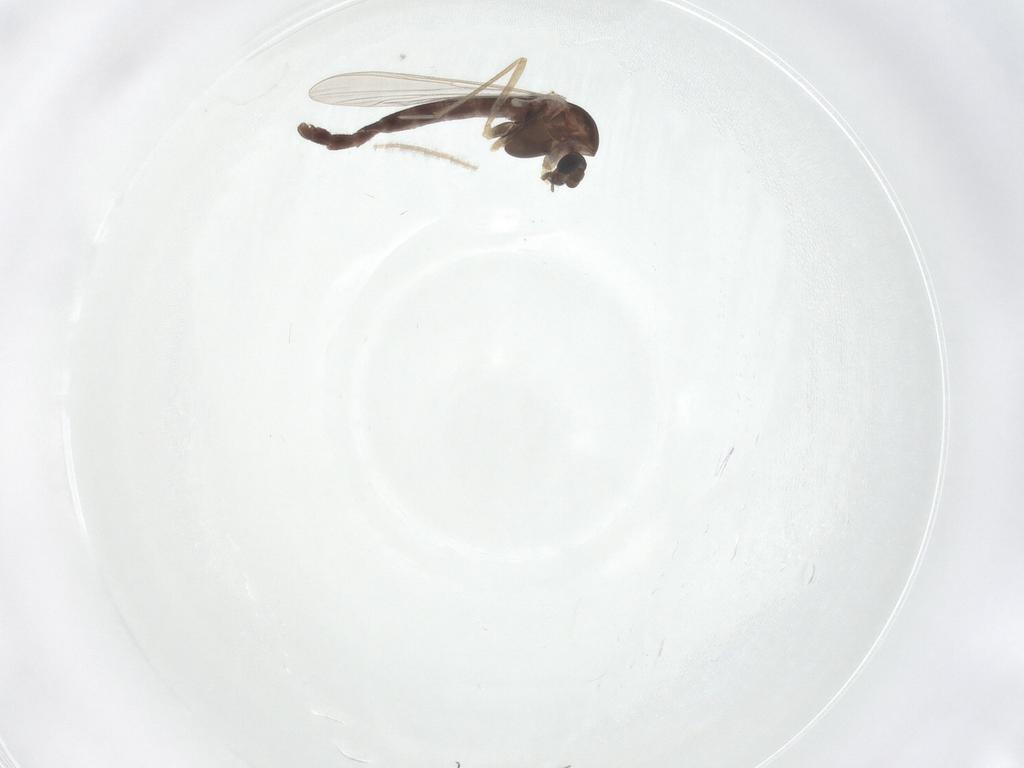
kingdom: Animalia
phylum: Arthropoda
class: Insecta
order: Diptera
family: Chironomidae
